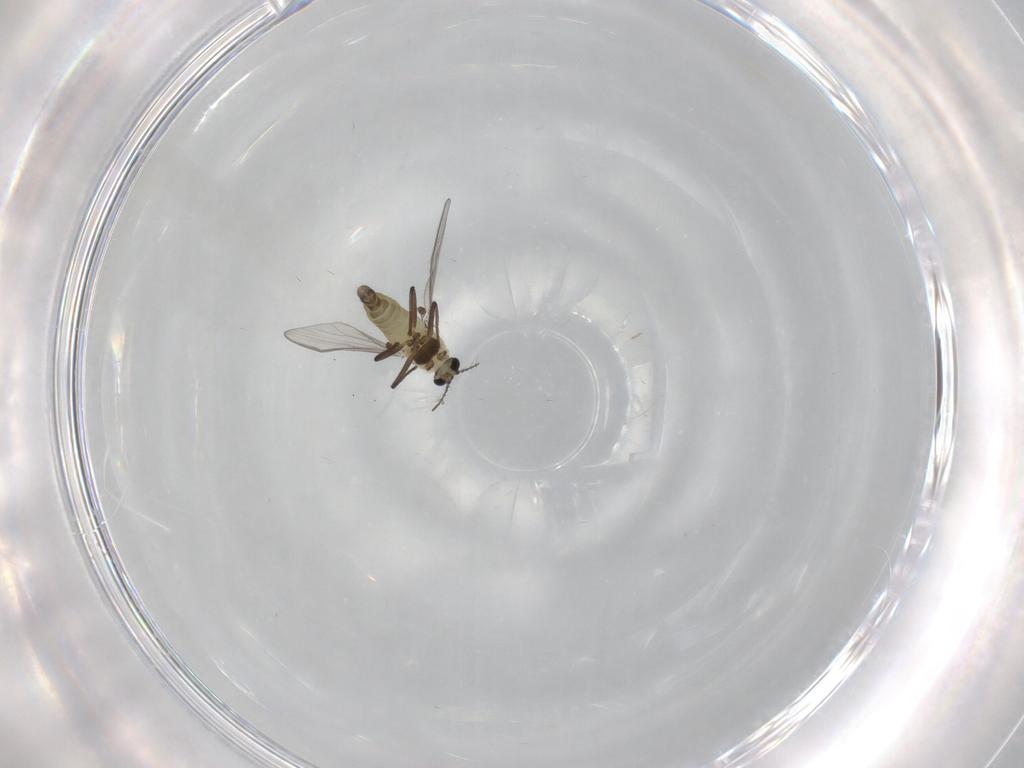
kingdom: Animalia
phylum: Arthropoda
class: Insecta
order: Diptera
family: Chironomidae
